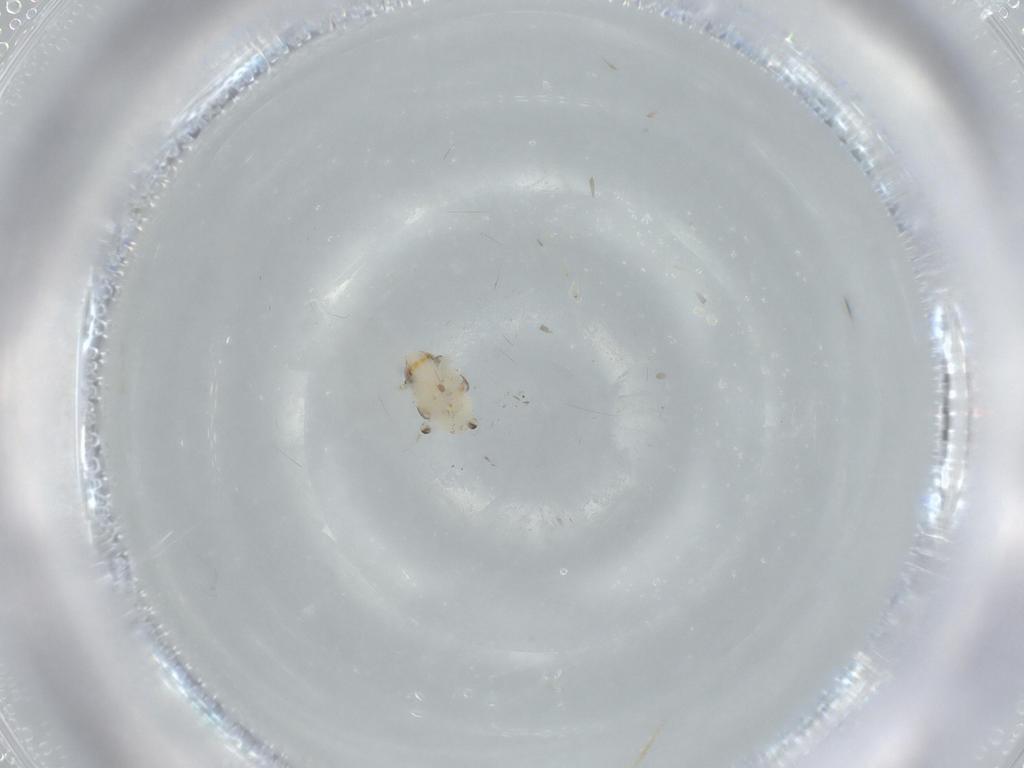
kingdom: Animalia
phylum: Arthropoda
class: Insecta
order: Hemiptera
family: Nogodinidae
